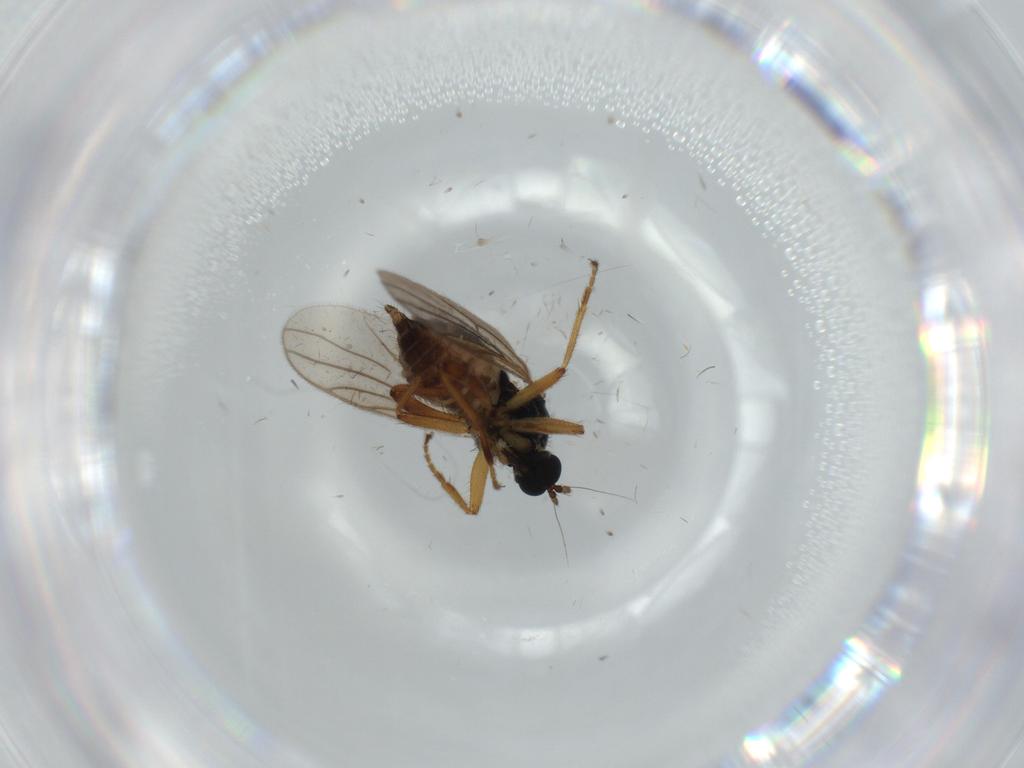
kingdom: Animalia
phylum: Arthropoda
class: Insecta
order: Diptera
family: Hybotidae
